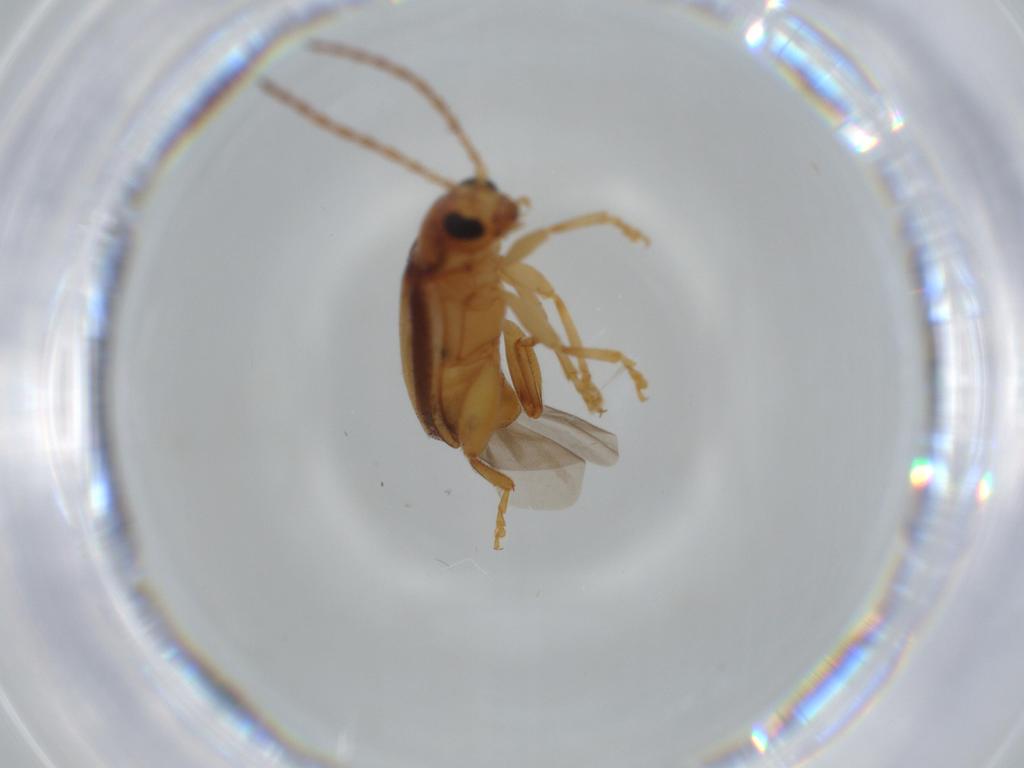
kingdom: Animalia
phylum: Arthropoda
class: Insecta
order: Coleoptera
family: Chrysomelidae
